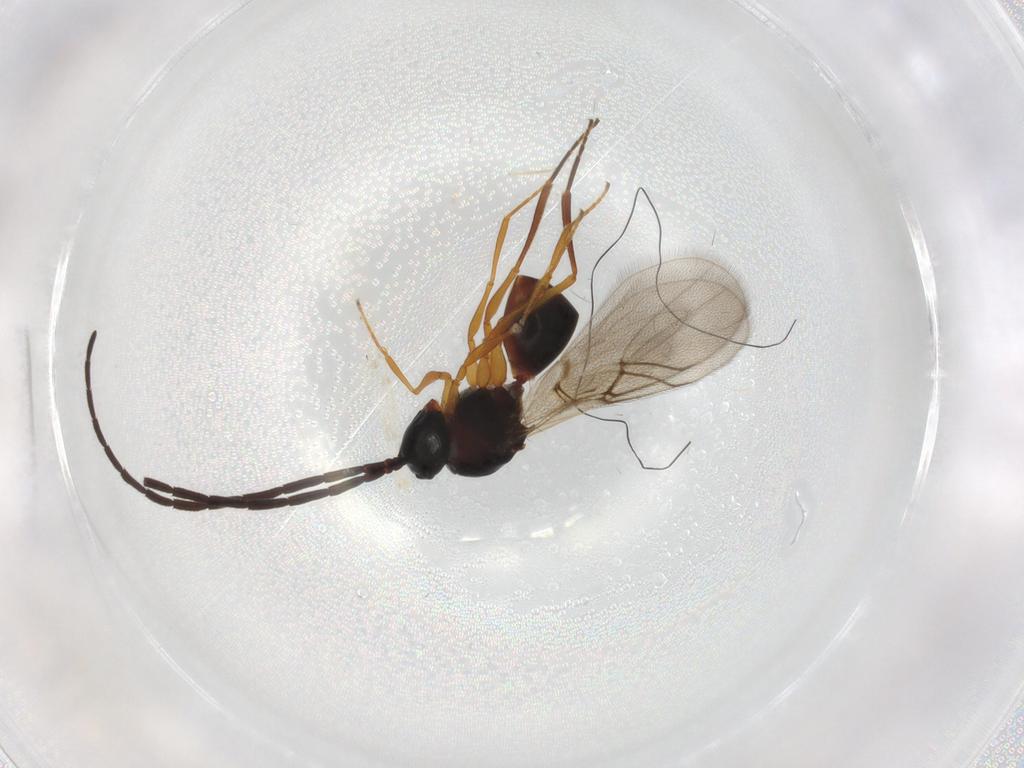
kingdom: Animalia
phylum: Arthropoda
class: Insecta
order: Hymenoptera
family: Figitidae
